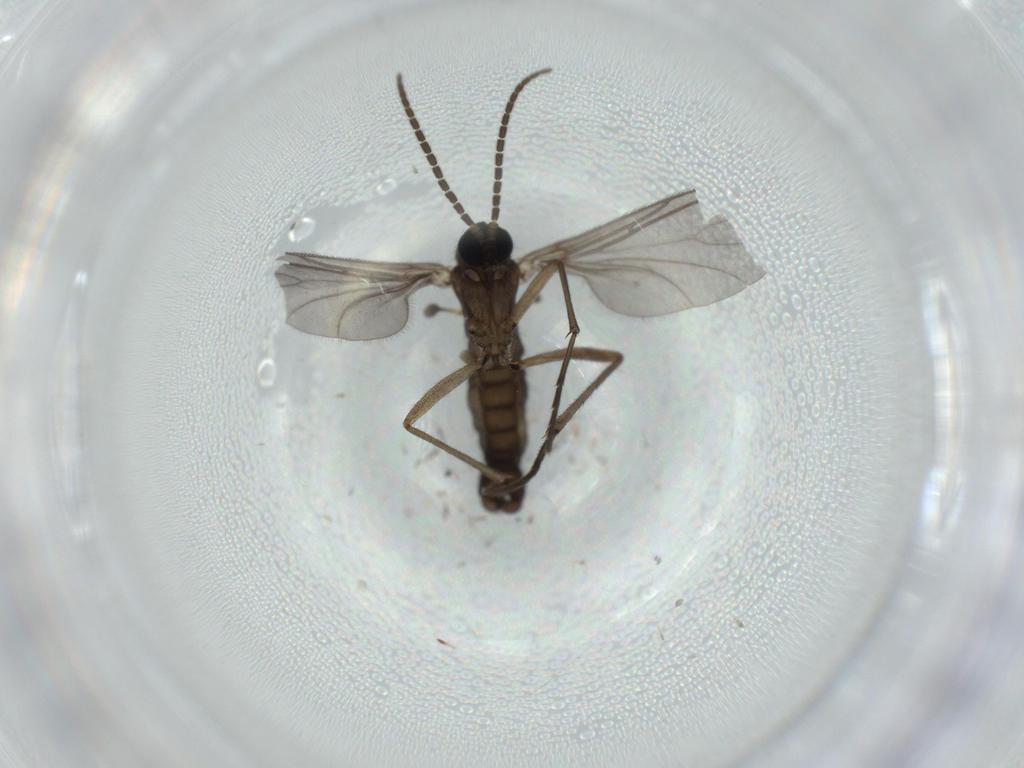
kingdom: Animalia
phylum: Arthropoda
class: Insecta
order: Diptera
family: Sciaridae
